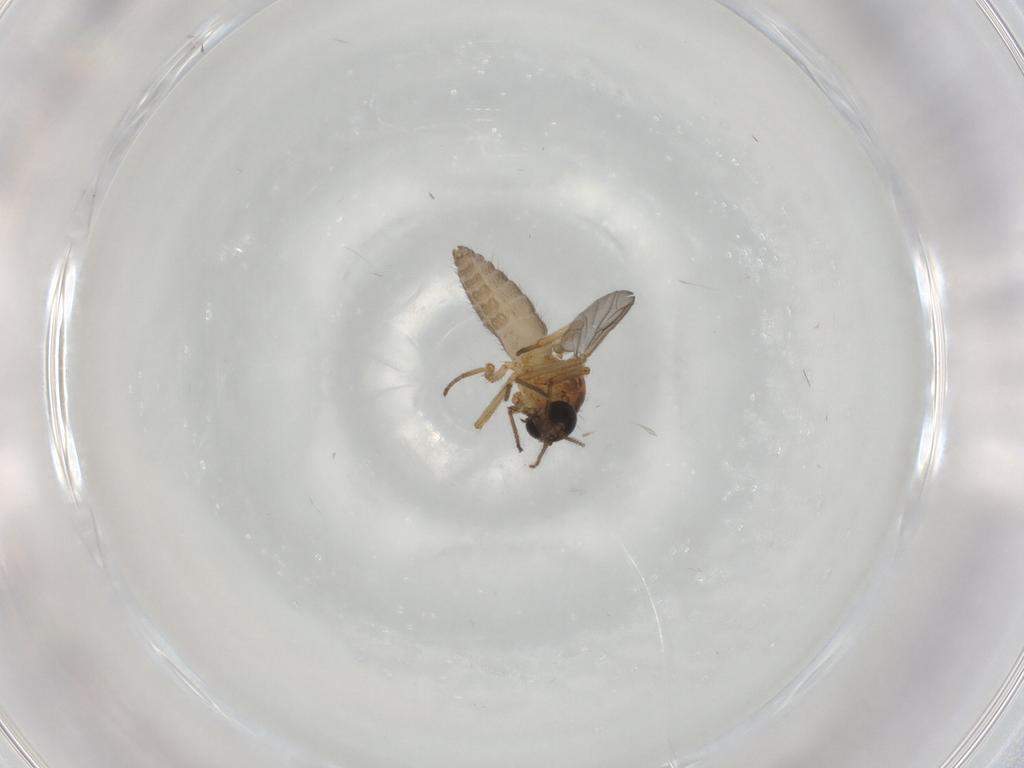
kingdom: Animalia
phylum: Arthropoda
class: Insecta
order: Diptera
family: Ceratopogonidae
